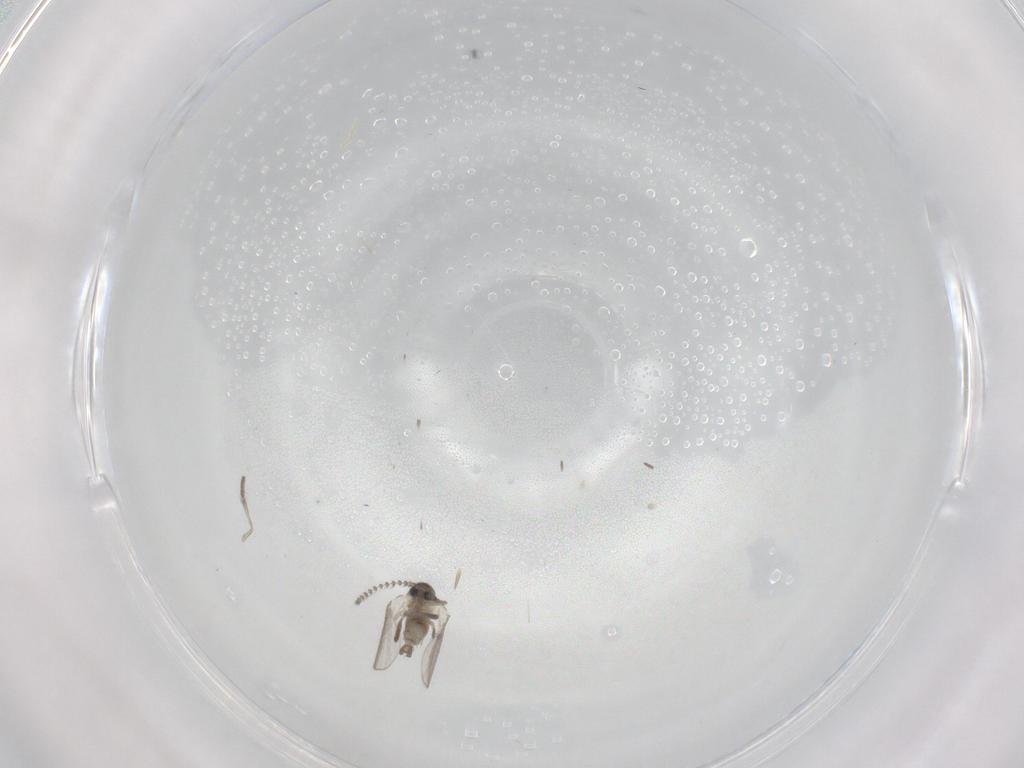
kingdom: Animalia
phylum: Arthropoda
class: Insecta
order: Diptera
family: Psychodidae
